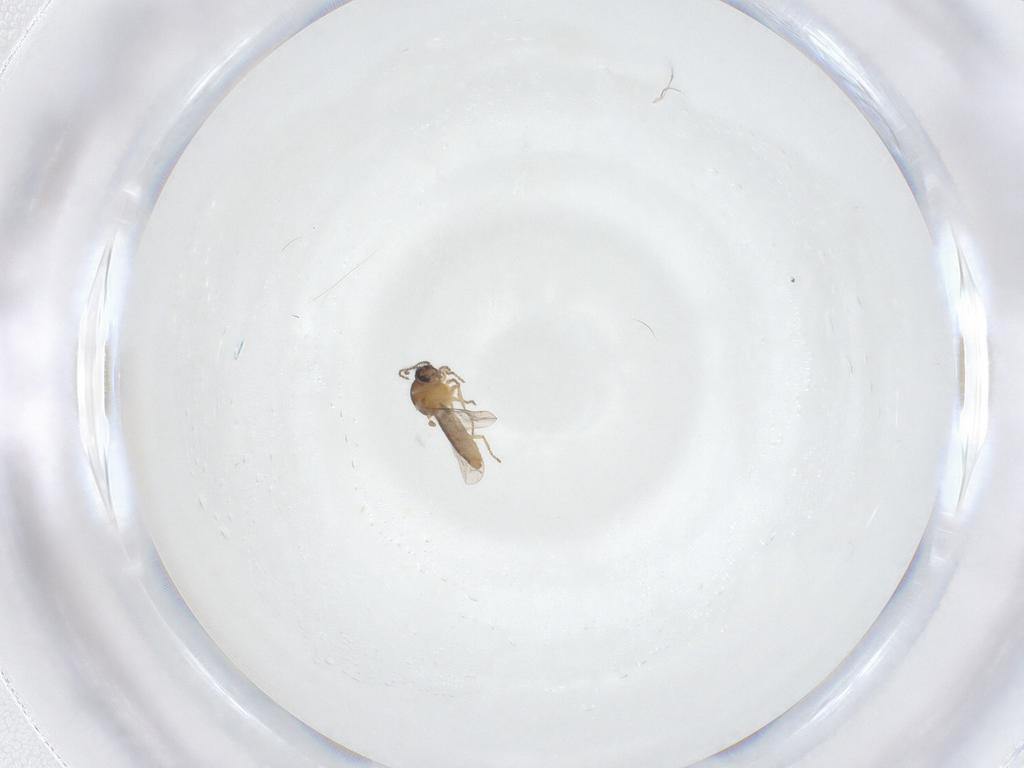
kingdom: Animalia
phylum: Arthropoda
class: Insecta
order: Diptera
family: Ceratopogonidae
